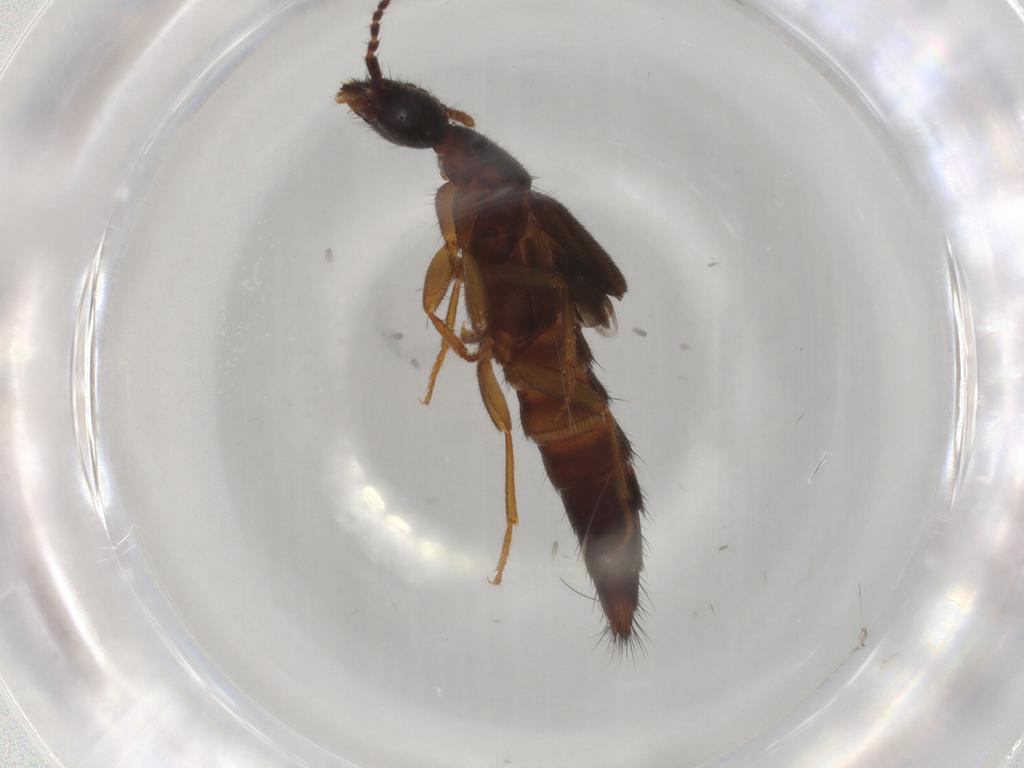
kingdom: Animalia
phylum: Arthropoda
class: Insecta
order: Coleoptera
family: Staphylinidae
